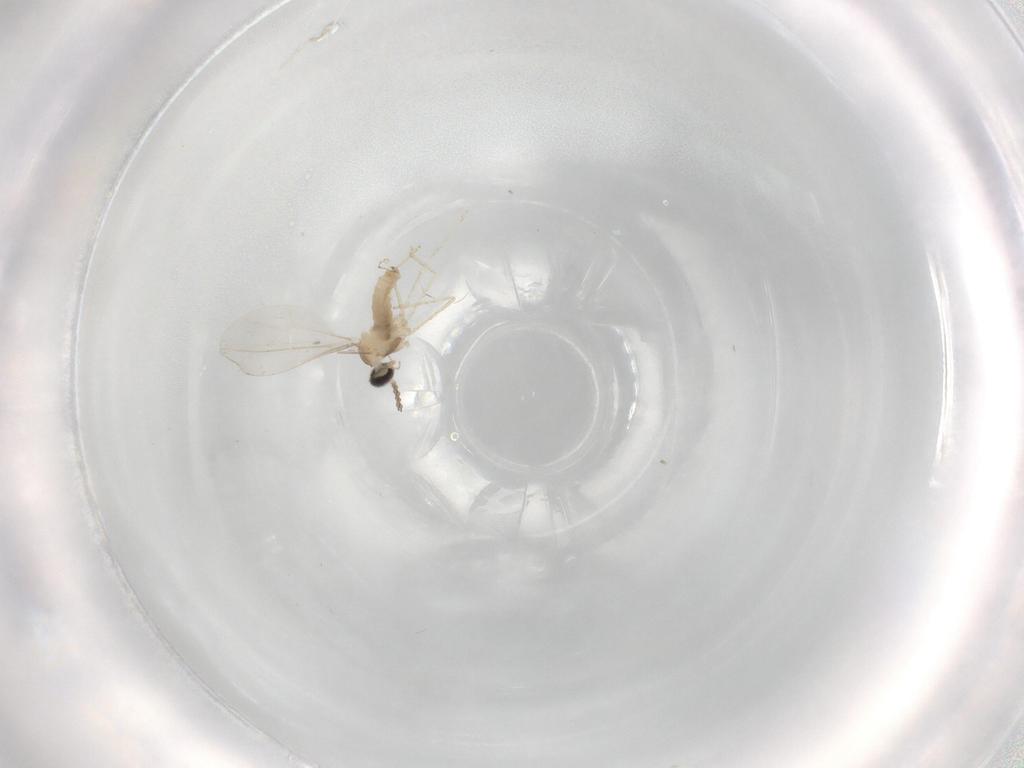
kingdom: Animalia
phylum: Arthropoda
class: Insecta
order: Diptera
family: Cecidomyiidae
